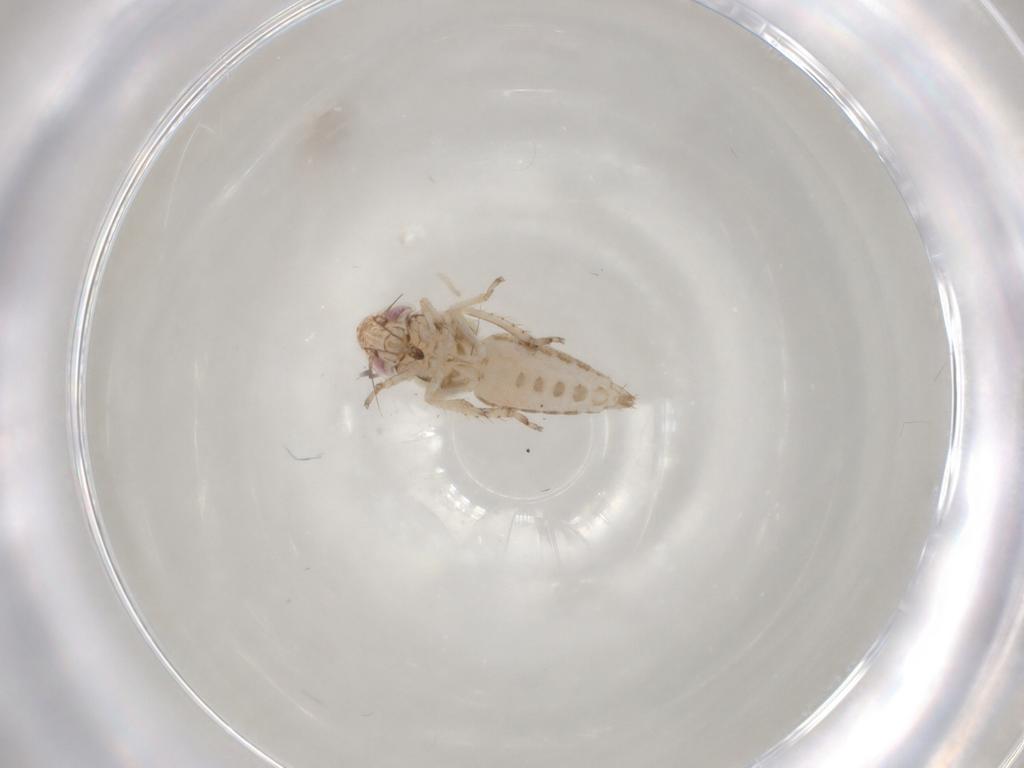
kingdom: Animalia
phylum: Arthropoda
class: Insecta
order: Hemiptera
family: Cicadellidae
